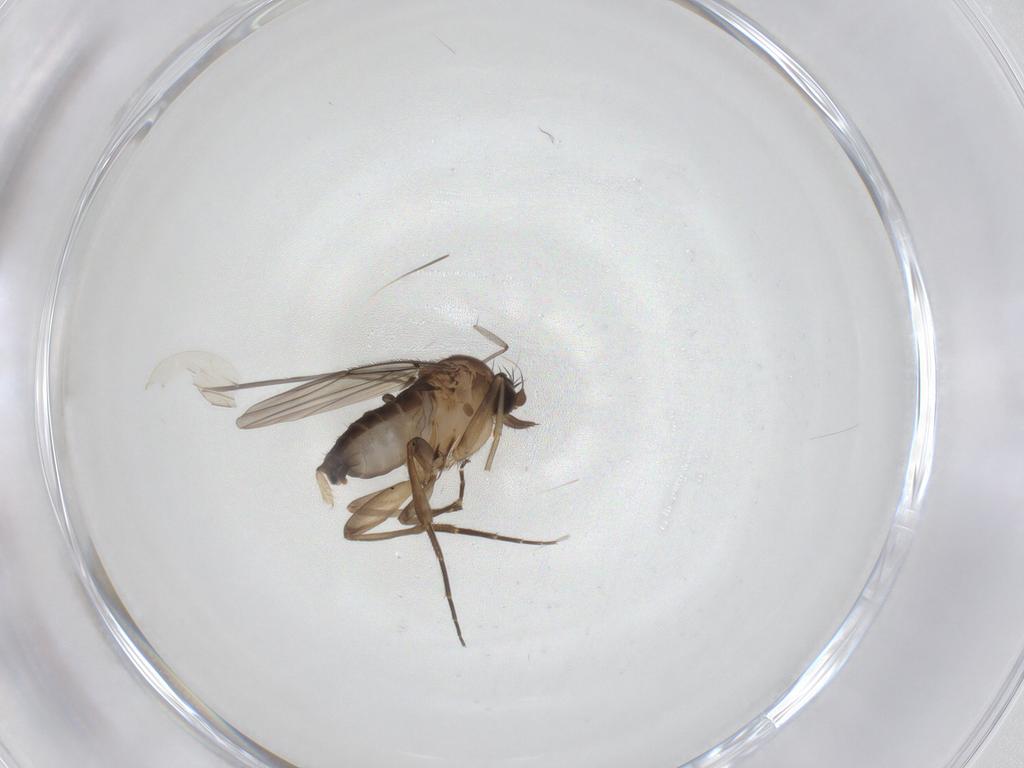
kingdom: Animalia
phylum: Arthropoda
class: Insecta
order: Diptera
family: Sciaridae
